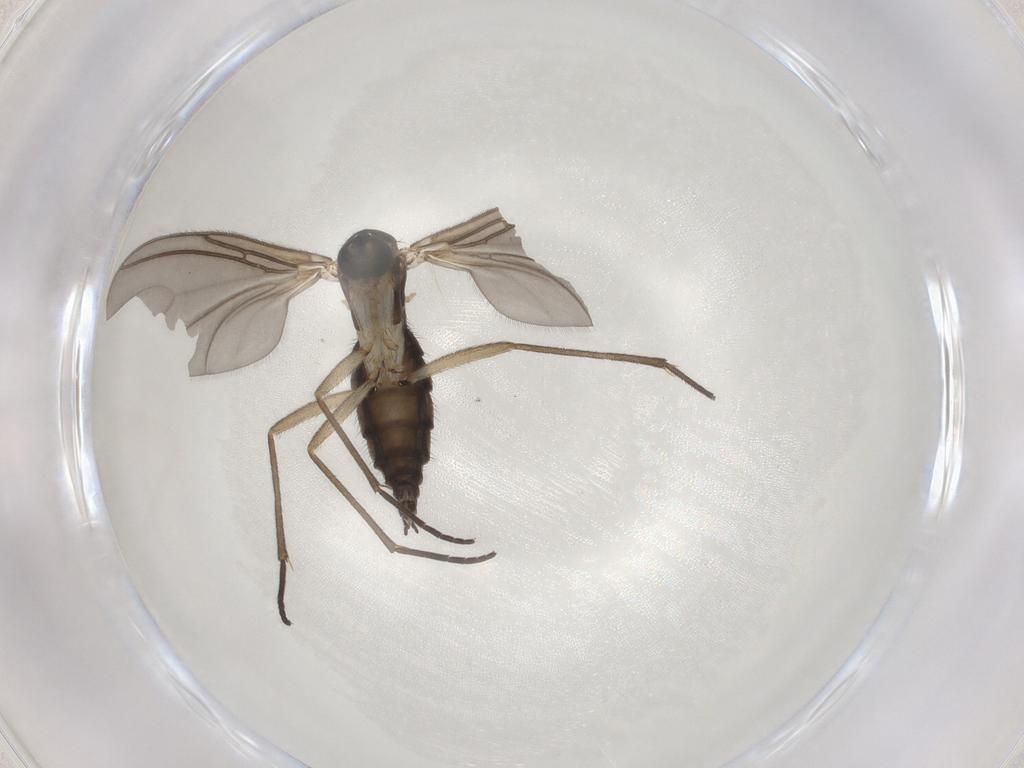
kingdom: Animalia
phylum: Arthropoda
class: Insecta
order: Diptera
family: Sciaridae
